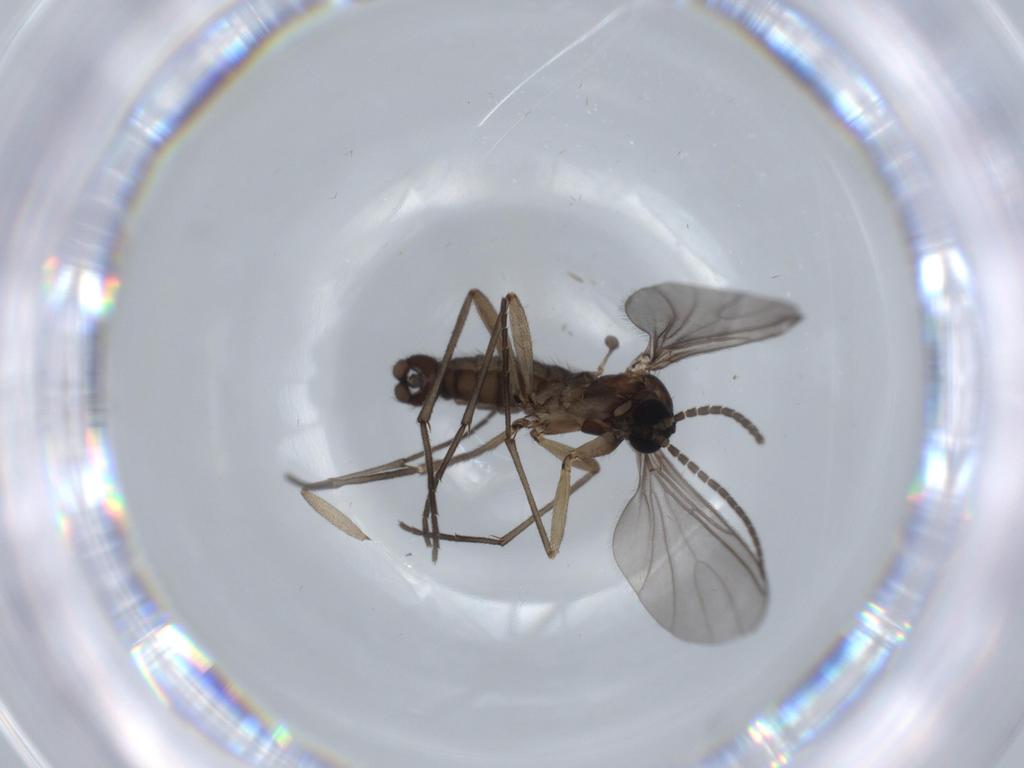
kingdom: Animalia
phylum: Arthropoda
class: Insecta
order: Diptera
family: Sciaridae
